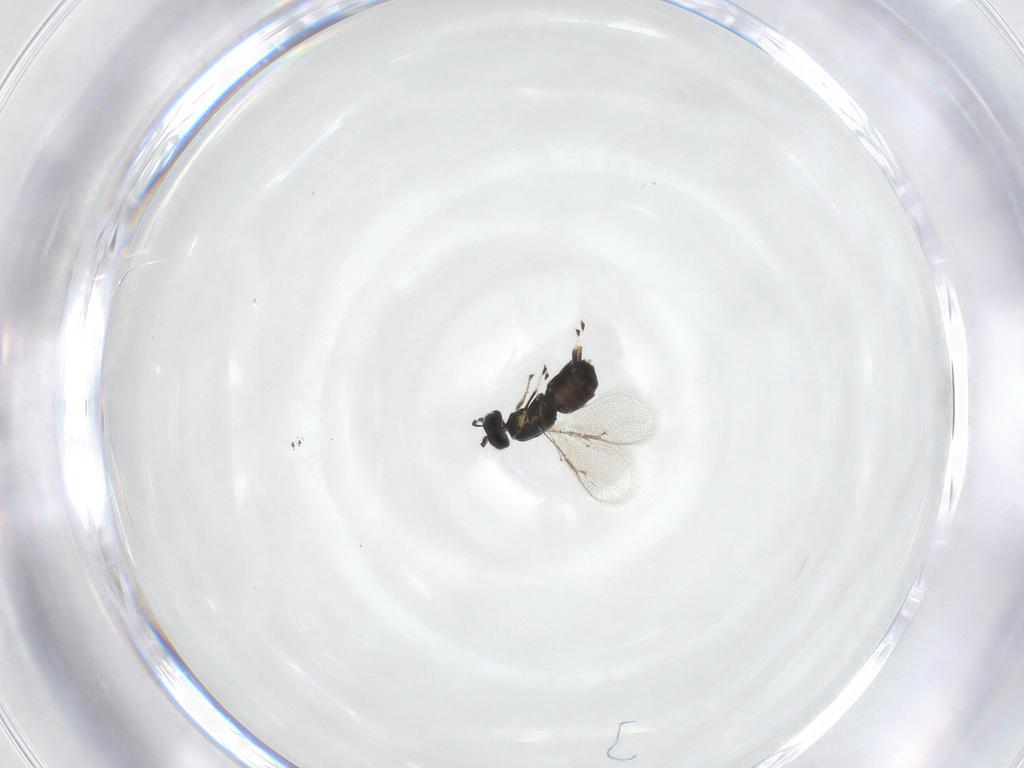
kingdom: Animalia
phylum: Arthropoda
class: Insecta
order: Hymenoptera
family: Eulophidae
